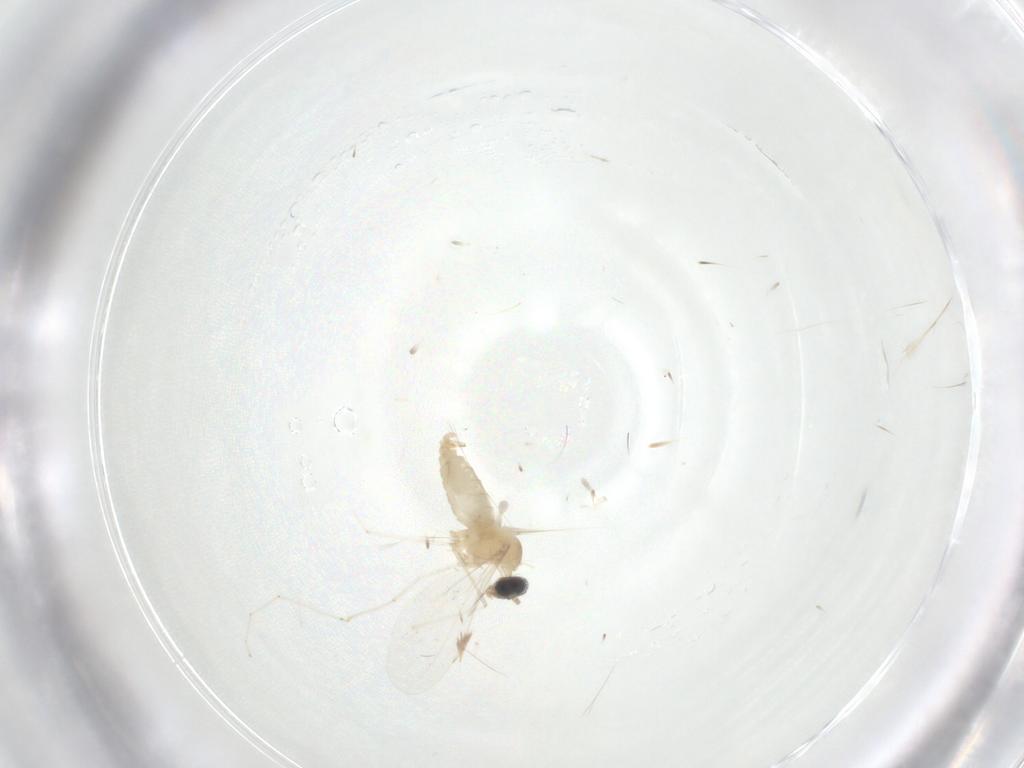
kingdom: Animalia
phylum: Arthropoda
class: Insecta
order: Diptera
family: Cecidomyiidae
